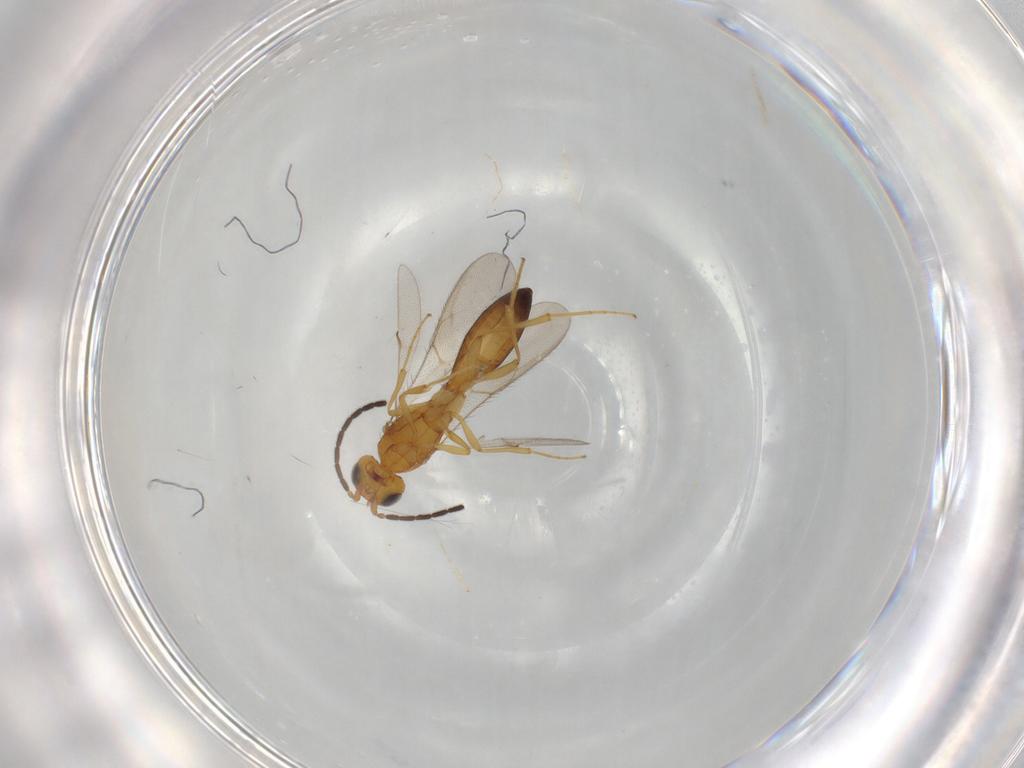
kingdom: Animalia
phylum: Arthropoda
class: Insecta
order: Hymenoptera
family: Scelionidae
